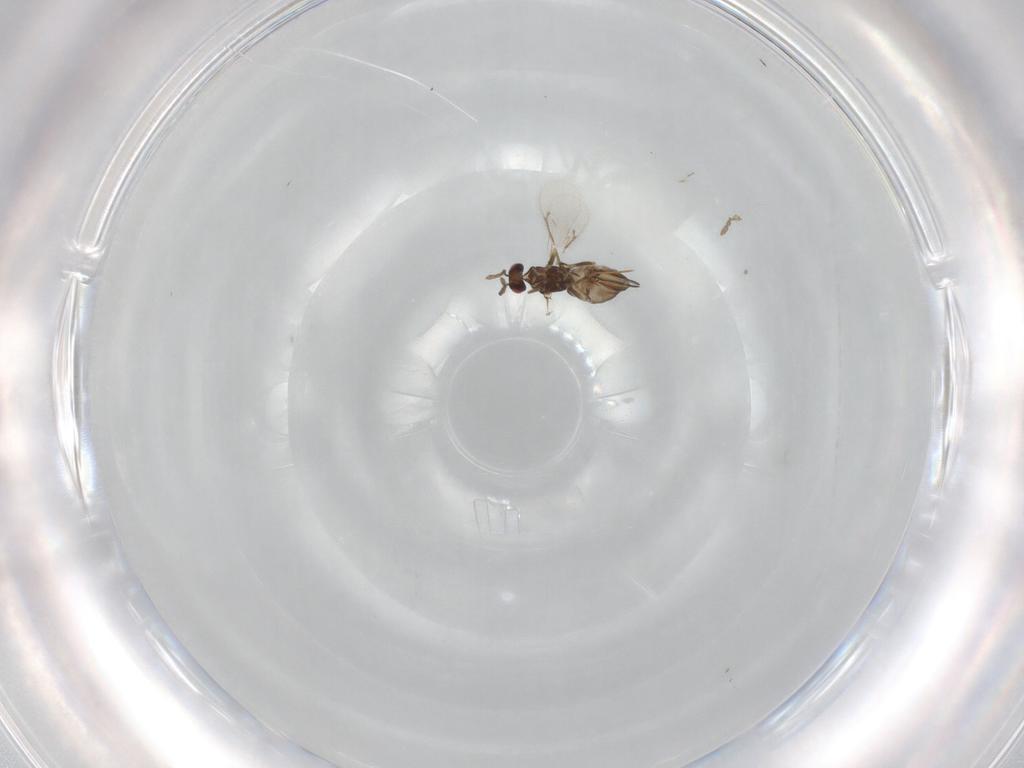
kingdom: Animalia
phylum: Arthropoda
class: Insecta
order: Hymenoptera
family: Eulophidae
